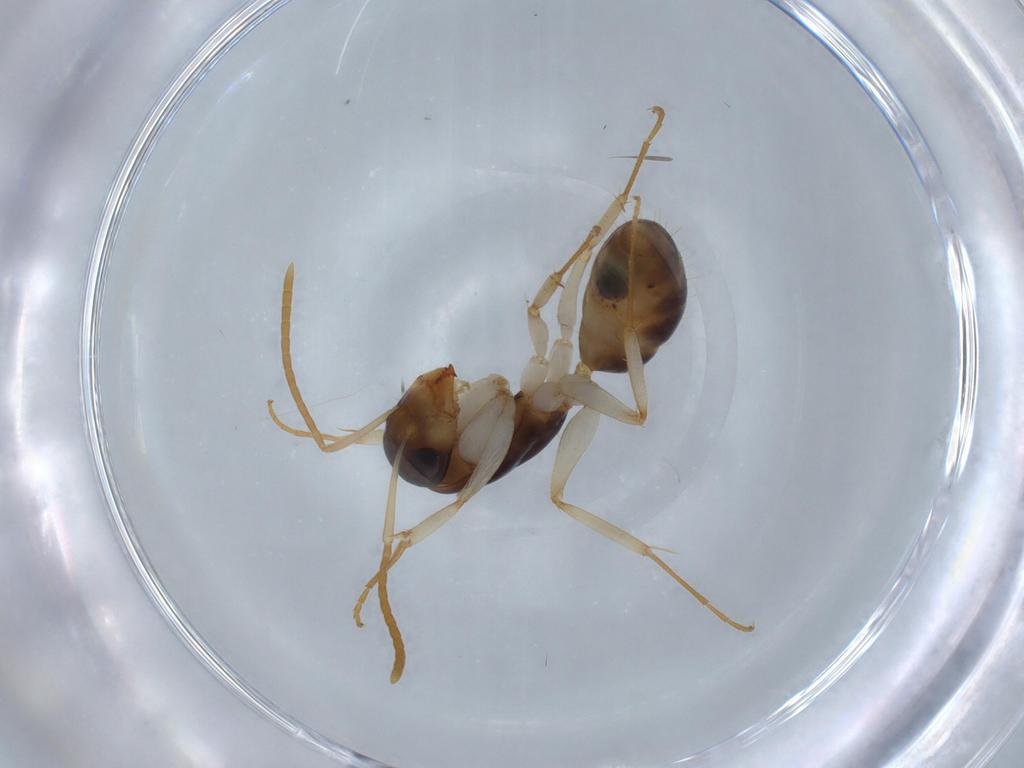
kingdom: Animalia
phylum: Arthropoda
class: Insecta
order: Hymenoptera
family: Formicidae
